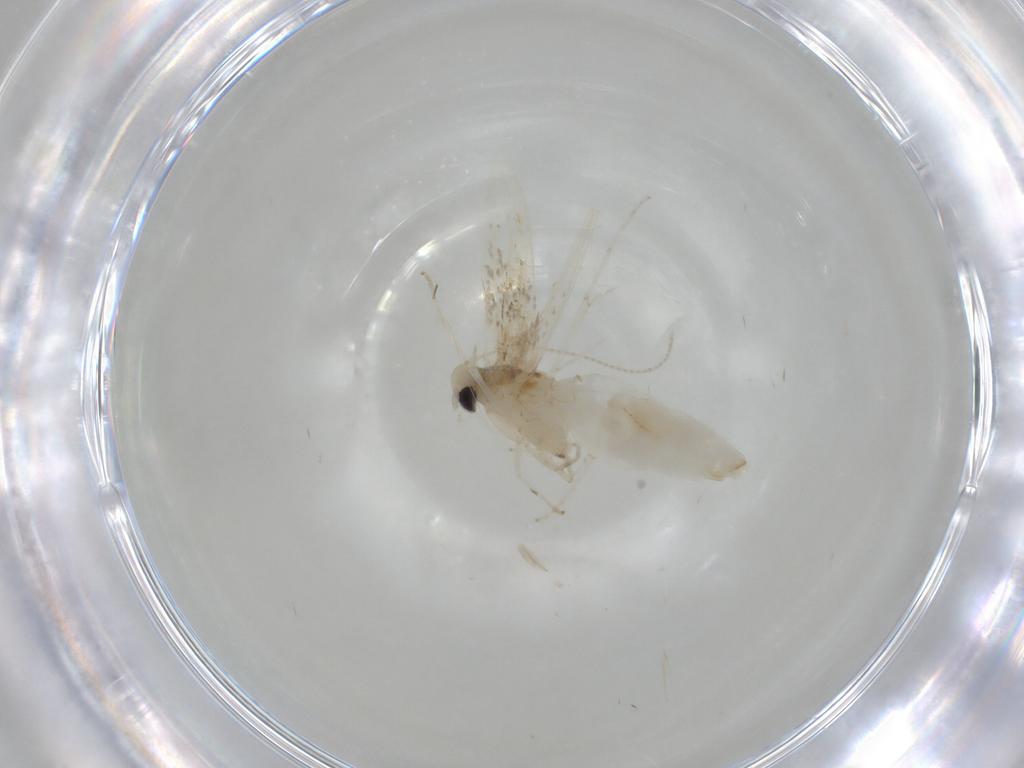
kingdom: Animalia
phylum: Arthropoda
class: Insecta
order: Lepidoptera
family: Gracillariidae
